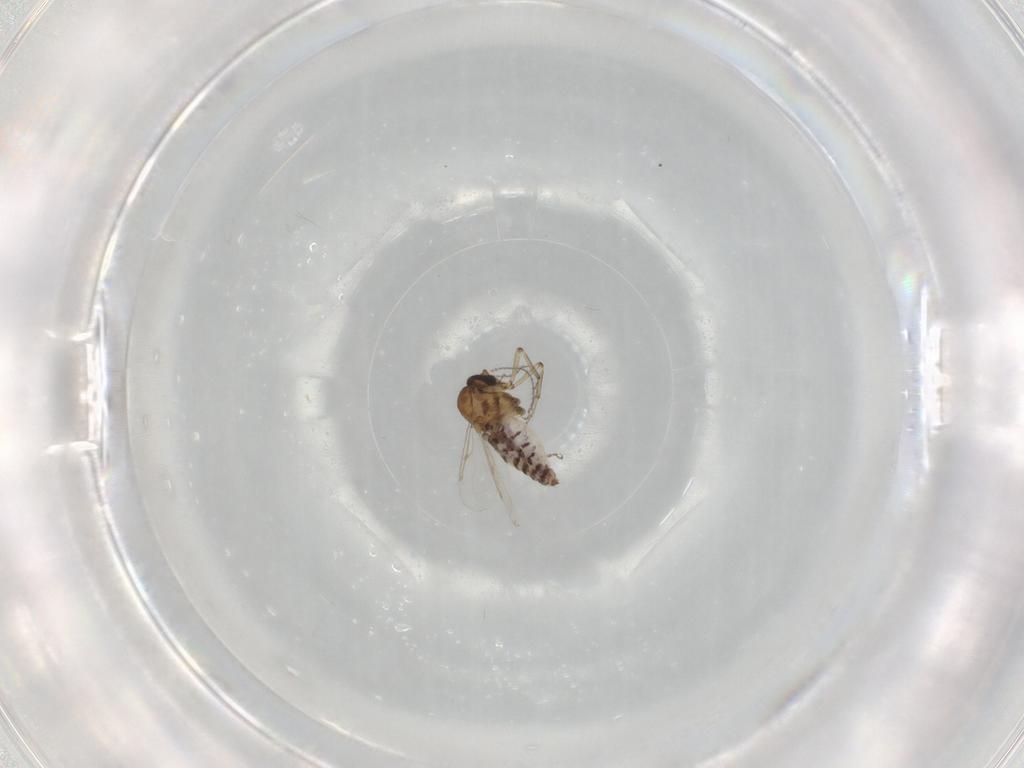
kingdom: Animalia
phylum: Arthropoda
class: Insecta
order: Diptera
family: Ceratopogonidae
